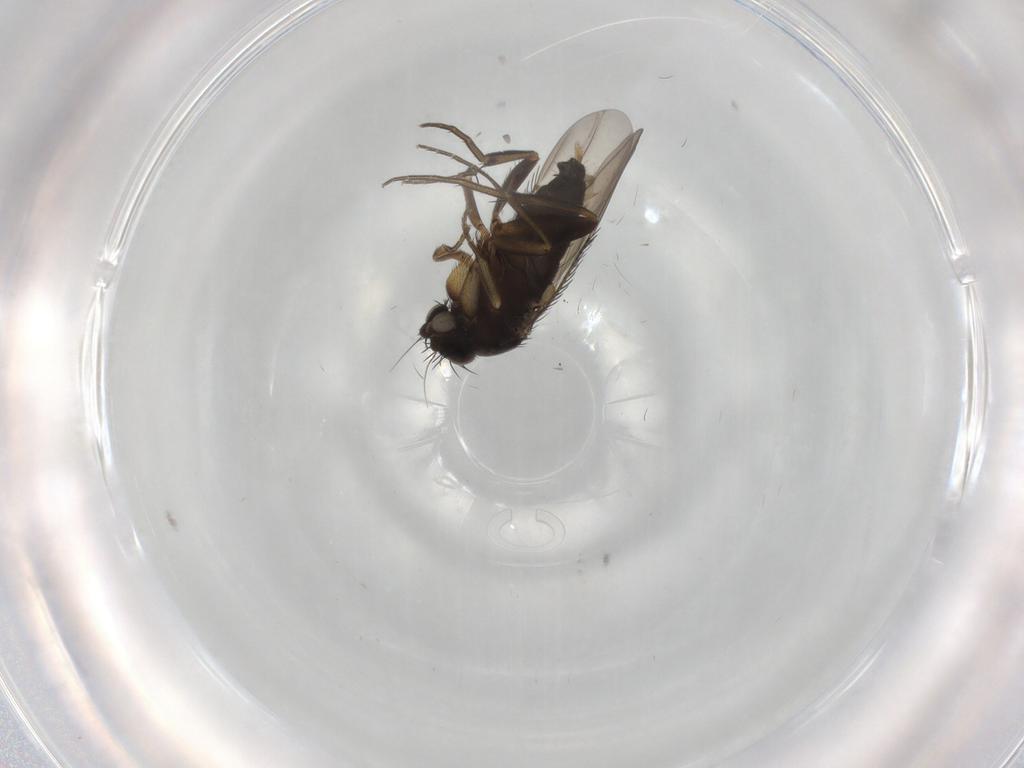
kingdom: Animalia
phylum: Arthropoda
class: Insecta
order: Diptera
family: Phoridae
